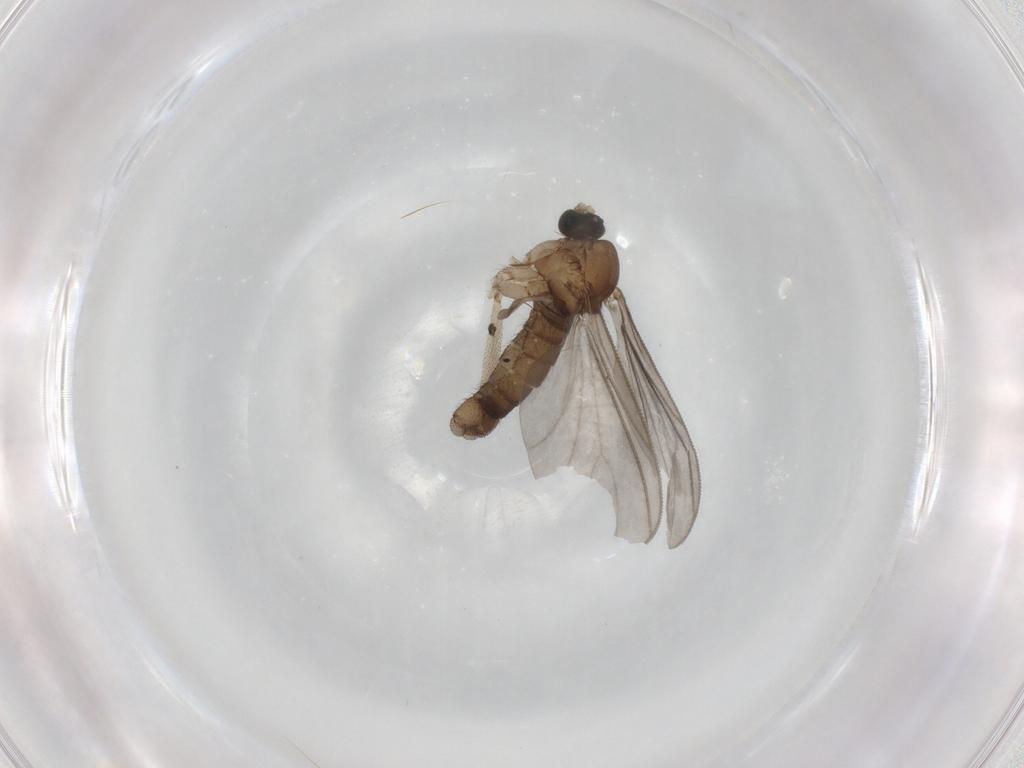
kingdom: Animalia
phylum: Arthropoda
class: Insecta
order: Diptera
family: Sciaridae
